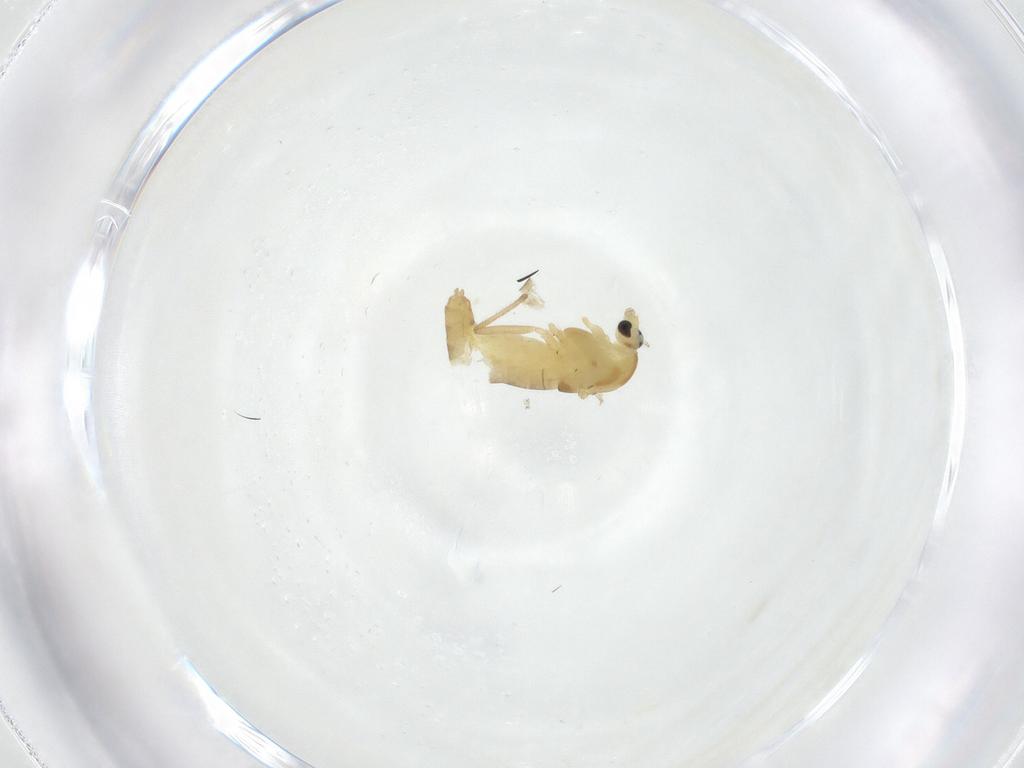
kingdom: Animalia
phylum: Arthropoda
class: Insecta
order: Diptera
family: Chironomidae
